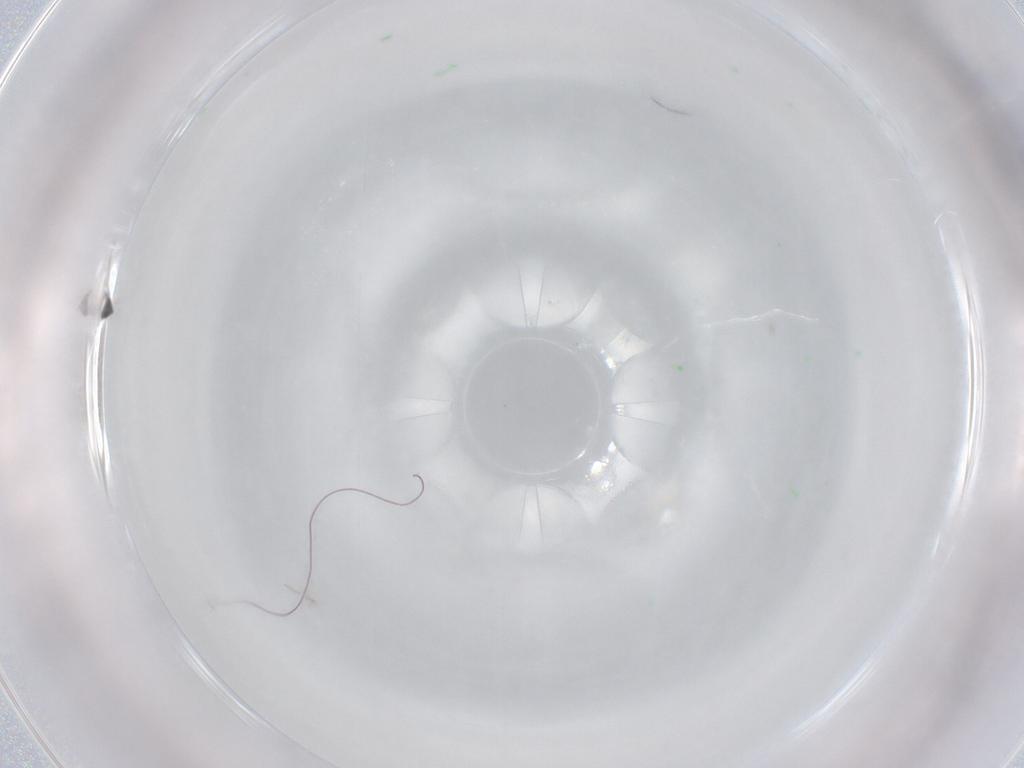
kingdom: Animalia
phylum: Arthropoda
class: Insecta
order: Hymenoptera
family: Mymaridae
